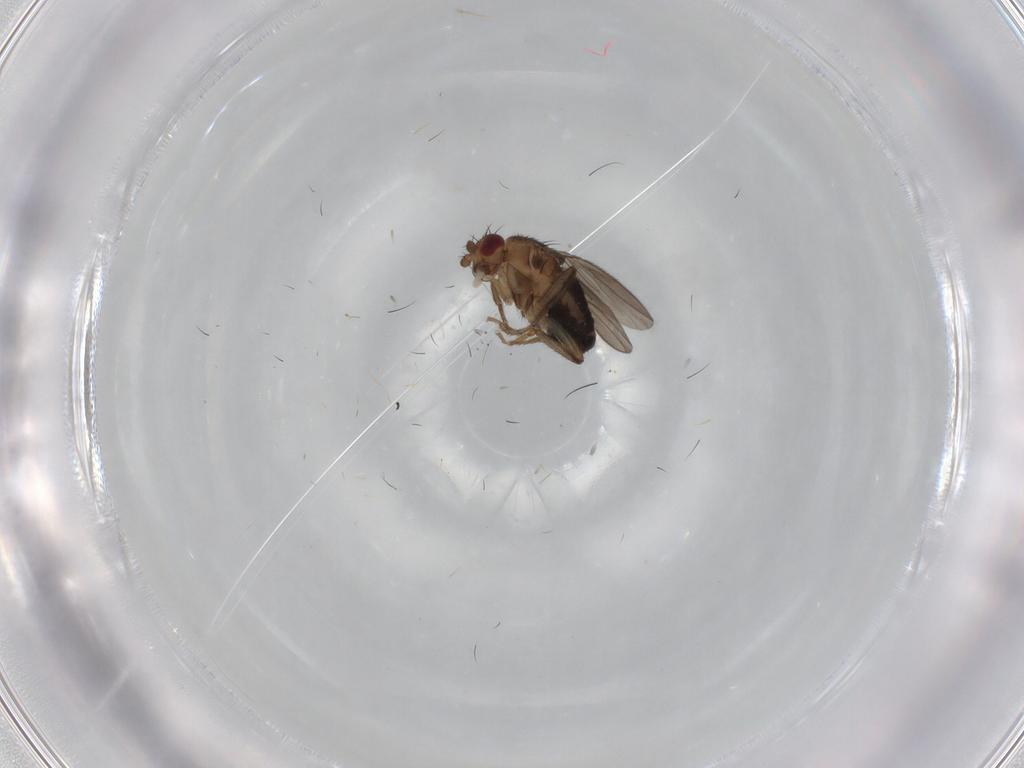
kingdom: Animalia
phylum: Arthropoda
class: Insecta
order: Diptera
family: Sphaeroceridae
